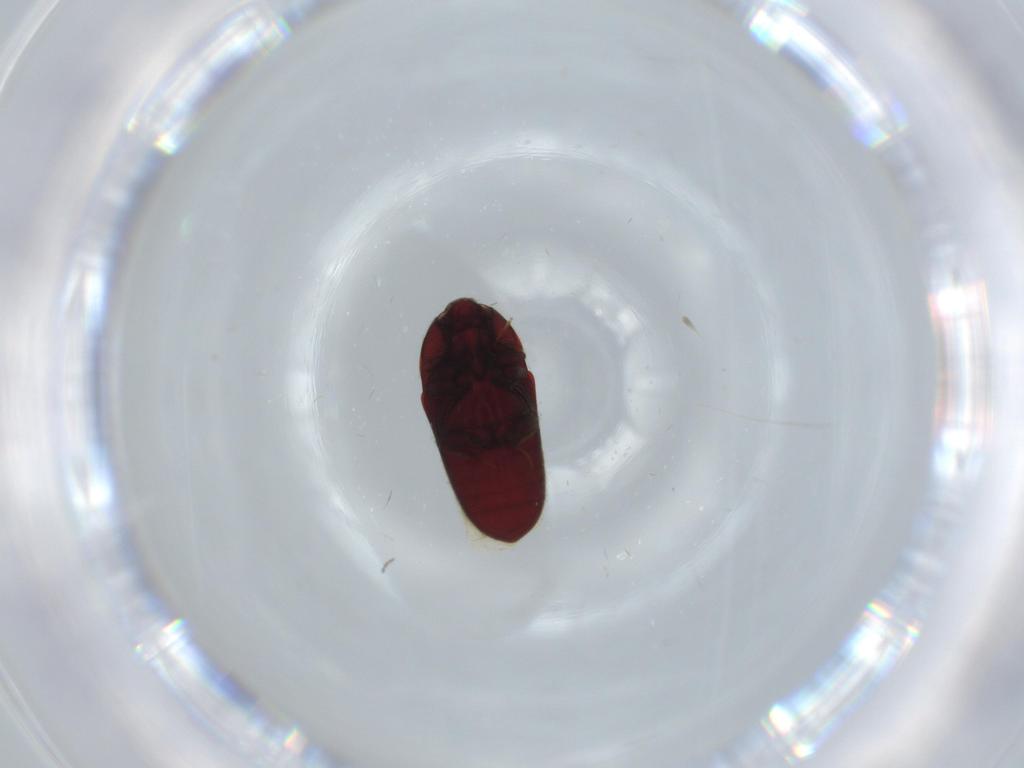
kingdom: Animalia
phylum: Arthropoda
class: Insecta
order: Coleoptera
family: Throscidae
